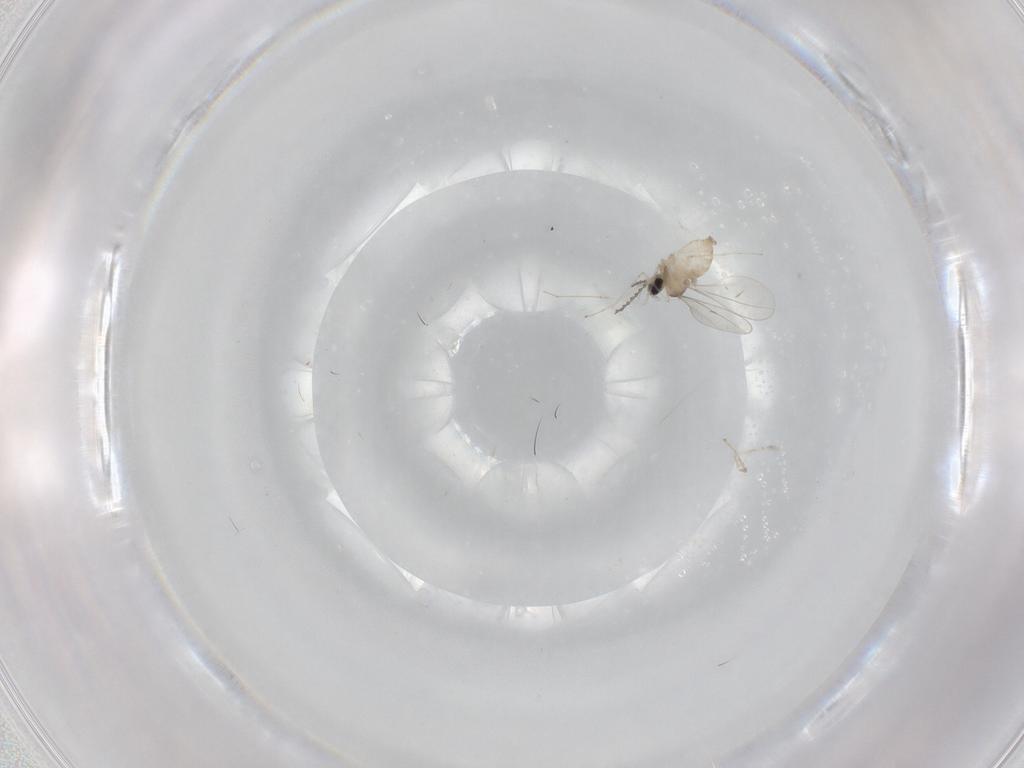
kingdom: Animalia
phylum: Arthropoda
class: Insecta
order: Diptera
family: Cecidomyiidae
